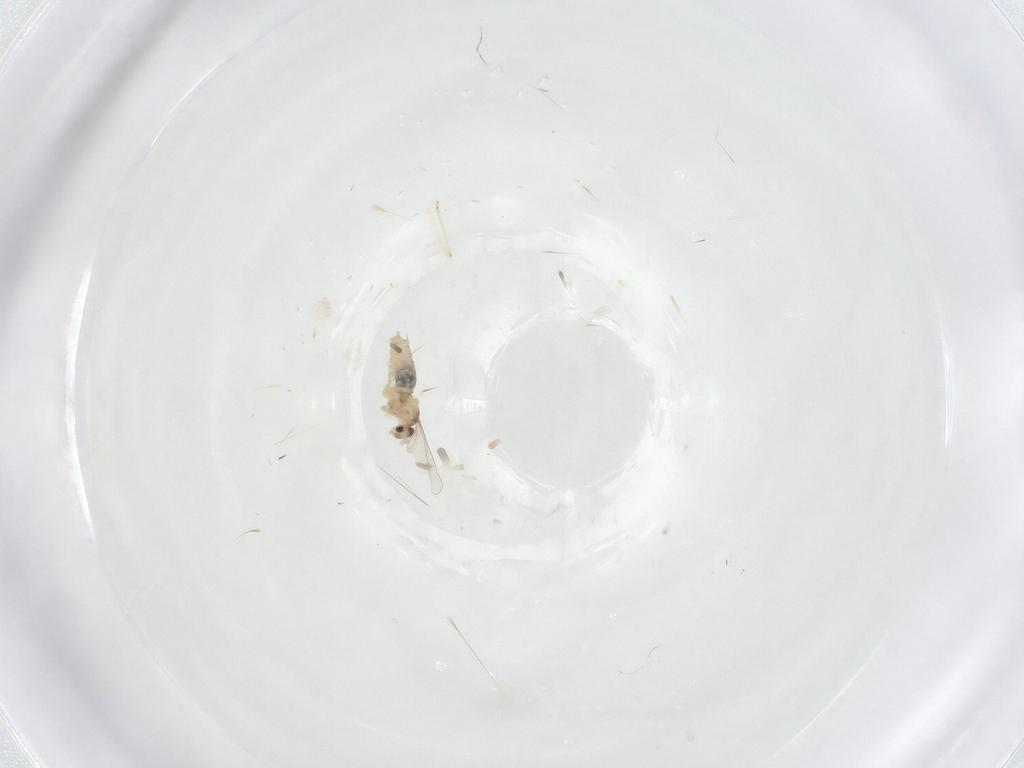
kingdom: Animalia
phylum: Arthropoda
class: Insecta
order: Diptera
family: Cecidomyiidae
